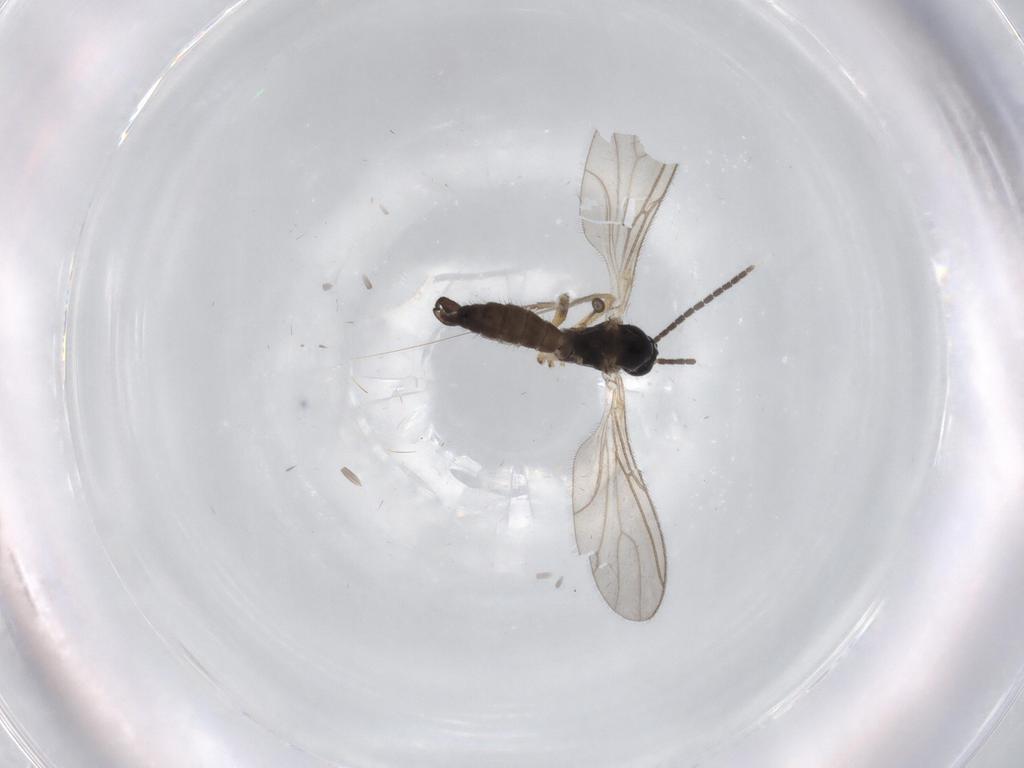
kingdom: Animalia
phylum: Arthropoda
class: Insecta
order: Diptera
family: Sciaridae
